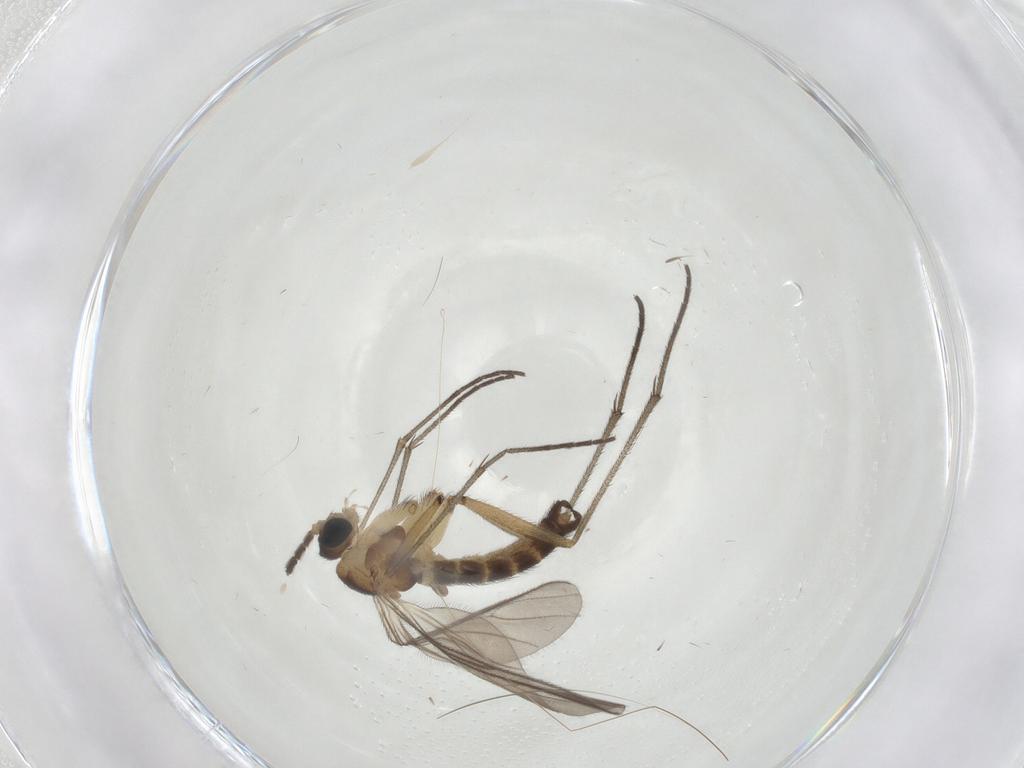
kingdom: Animalia
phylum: Arthropoda
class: Insecta
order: Diptera
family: Sciaridae
